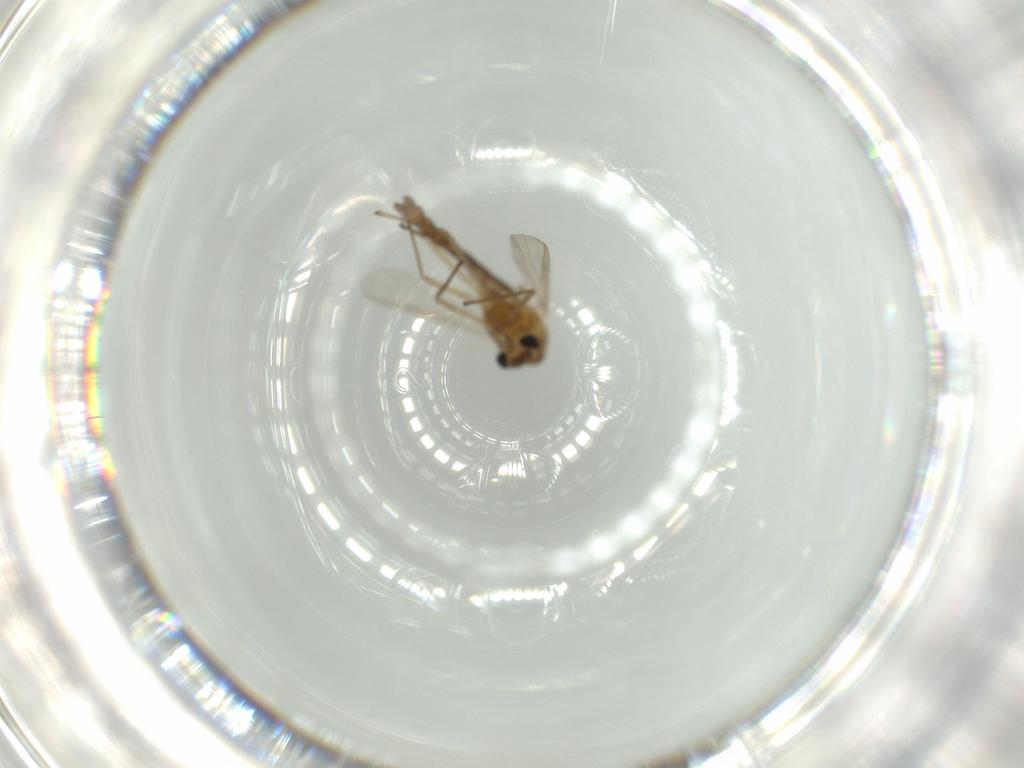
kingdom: Animalia
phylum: Arthropoda
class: Insecta
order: Diptera
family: Chironomidae
